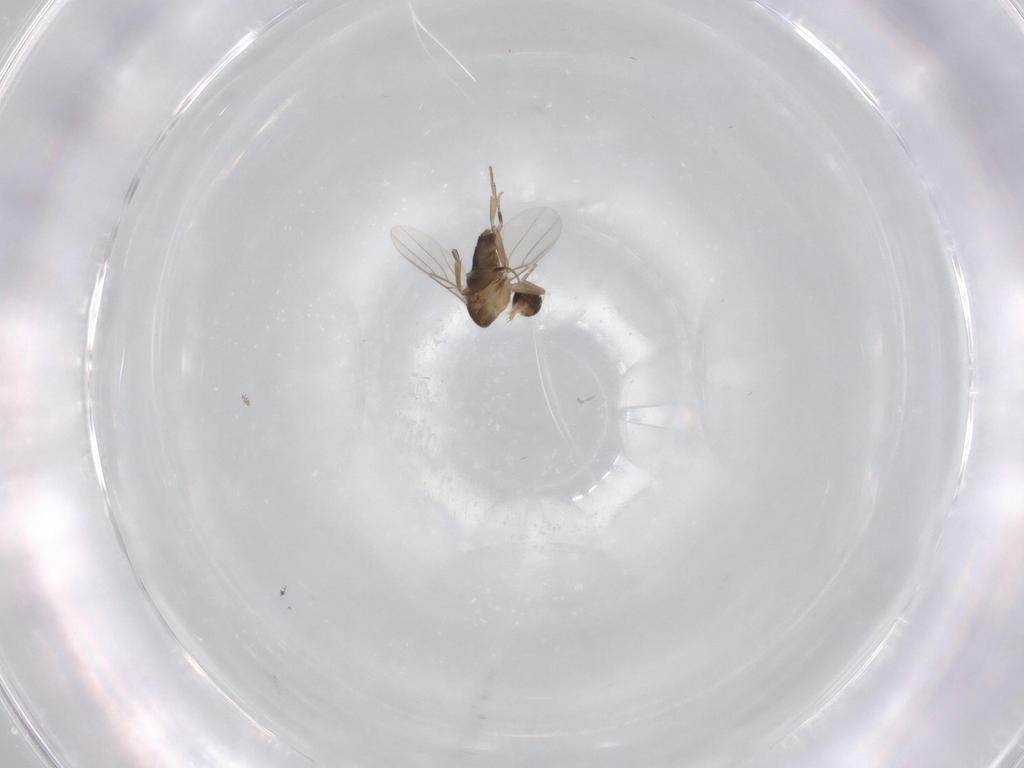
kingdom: Animalia
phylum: Arthropoda
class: Insecta
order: Diptera
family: Phoridae
